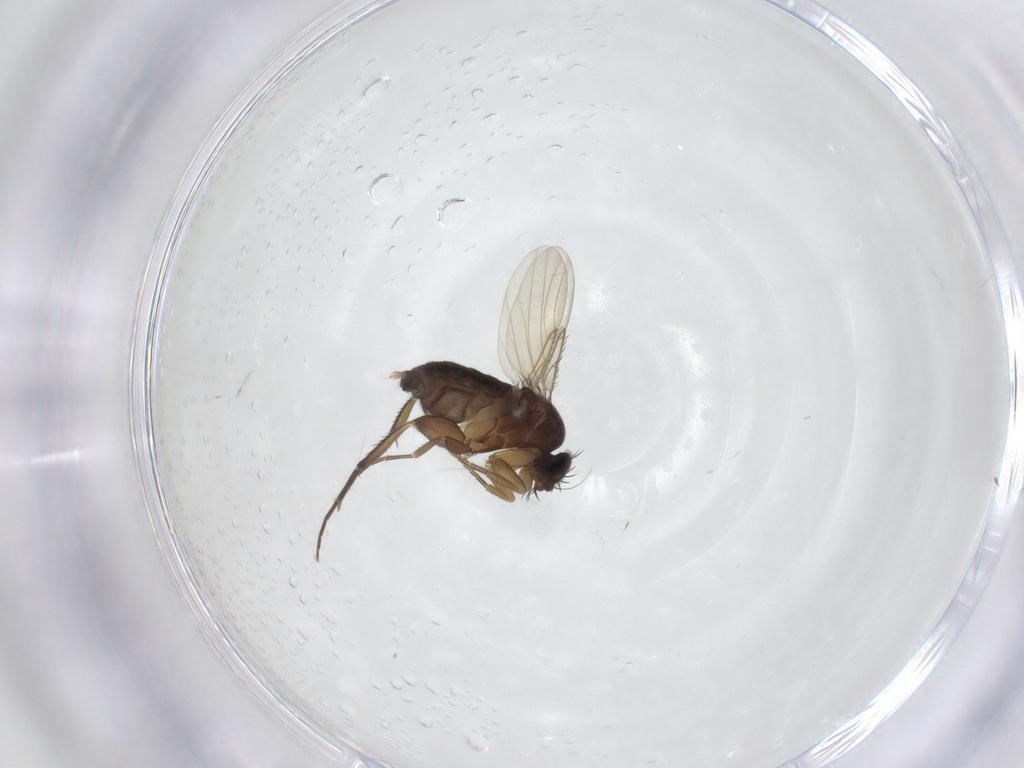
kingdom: Animalia
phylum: Arthropoda
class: Insecta
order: Diptera
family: Phoridae
